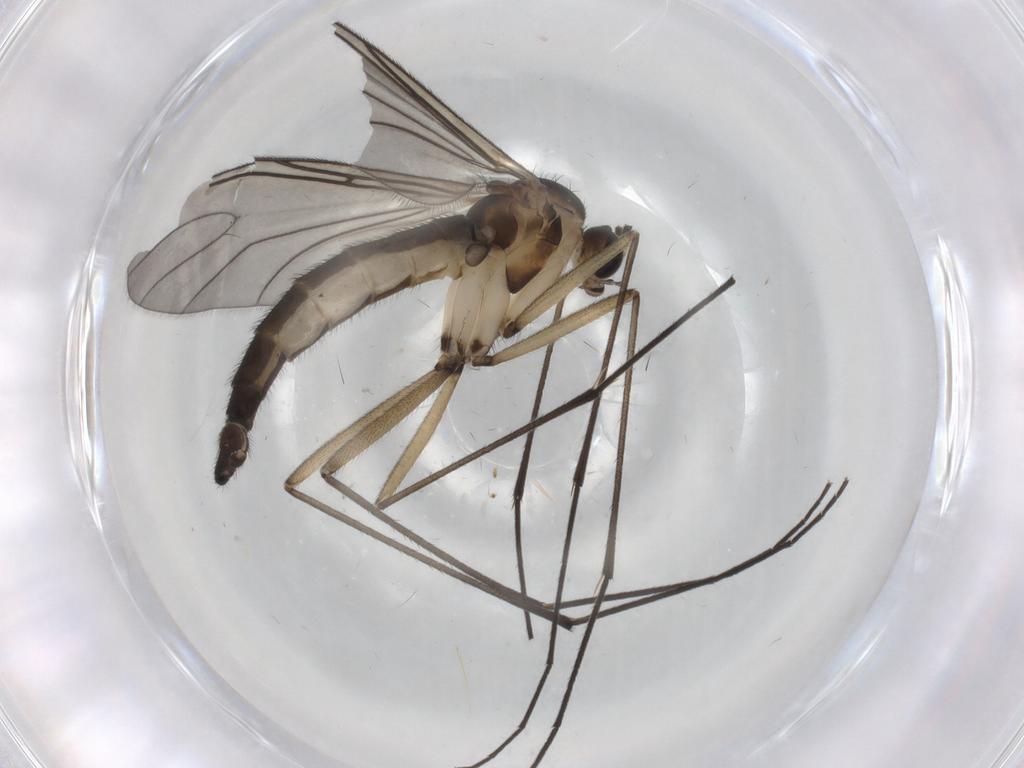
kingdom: Animalia
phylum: Arthropoda
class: Insecta
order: Diptera
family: Sciaridae
